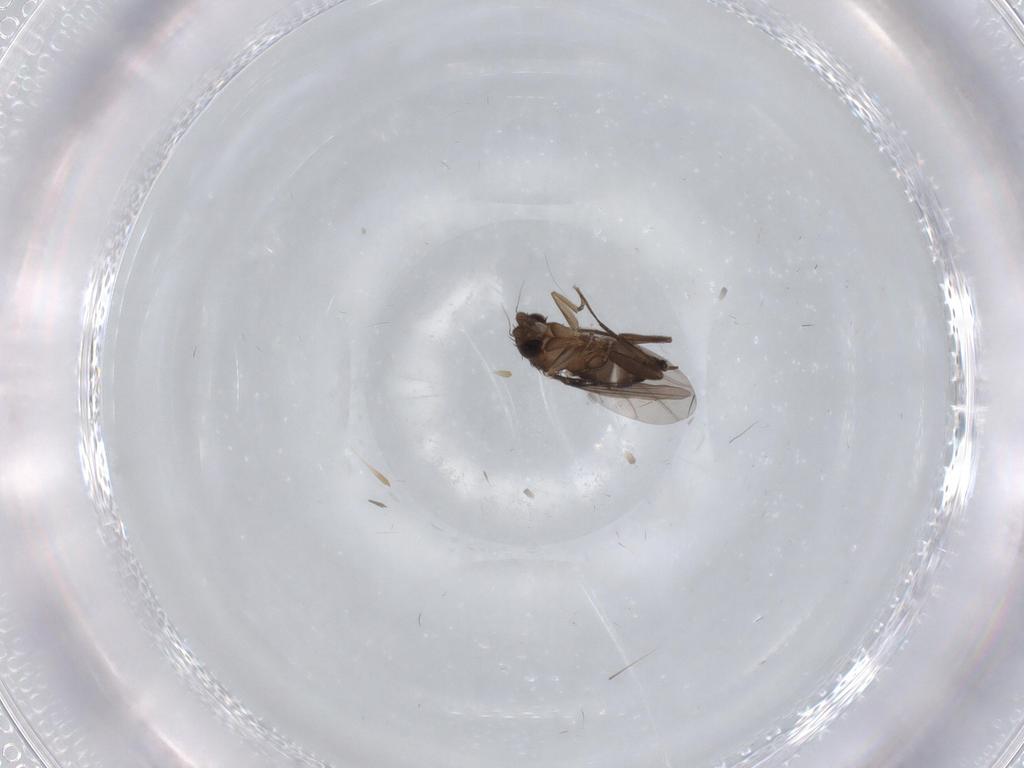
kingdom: Animalia
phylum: Arthropoda
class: Insecta
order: Diptera
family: Phoridae
